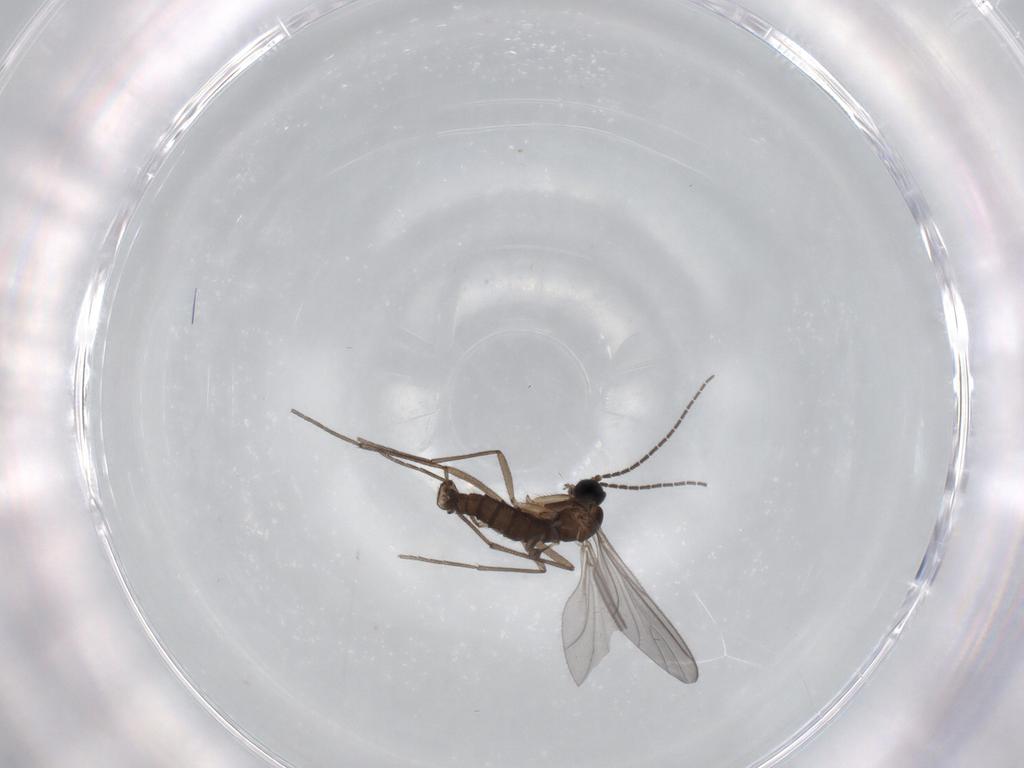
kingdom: Animalia
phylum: Arthropoda
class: Insecta
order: Diptera
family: Sciaridae
